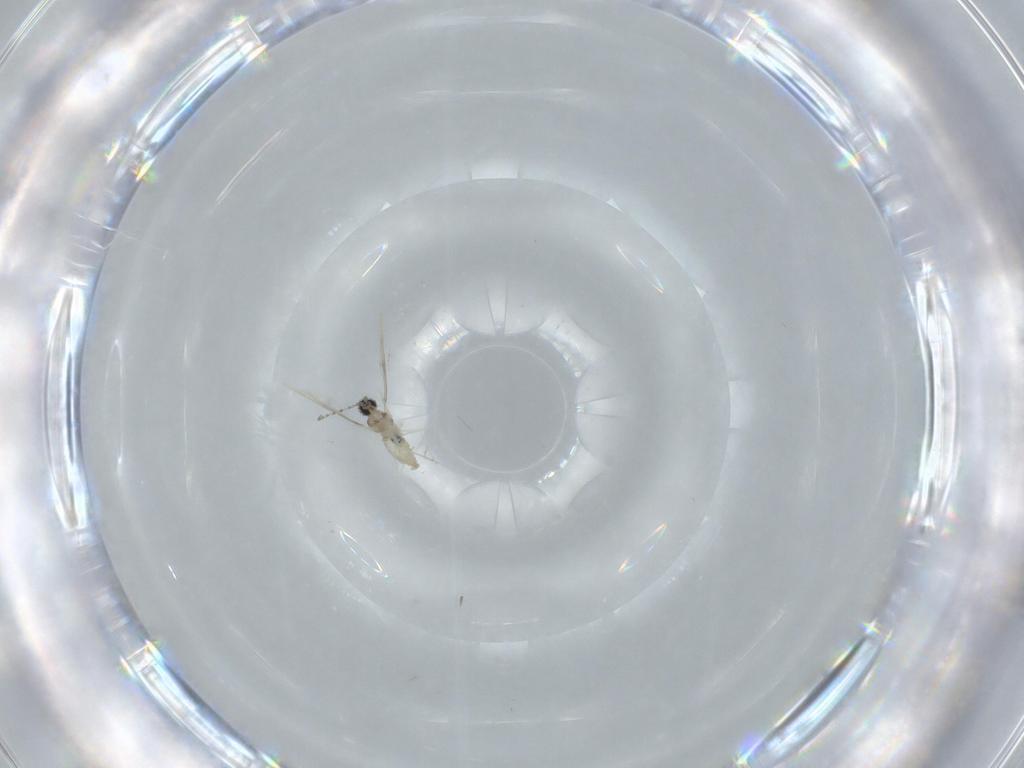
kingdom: Animalia
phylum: Arthropoda
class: Insecta
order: Diptera
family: Cecidomyiidae
